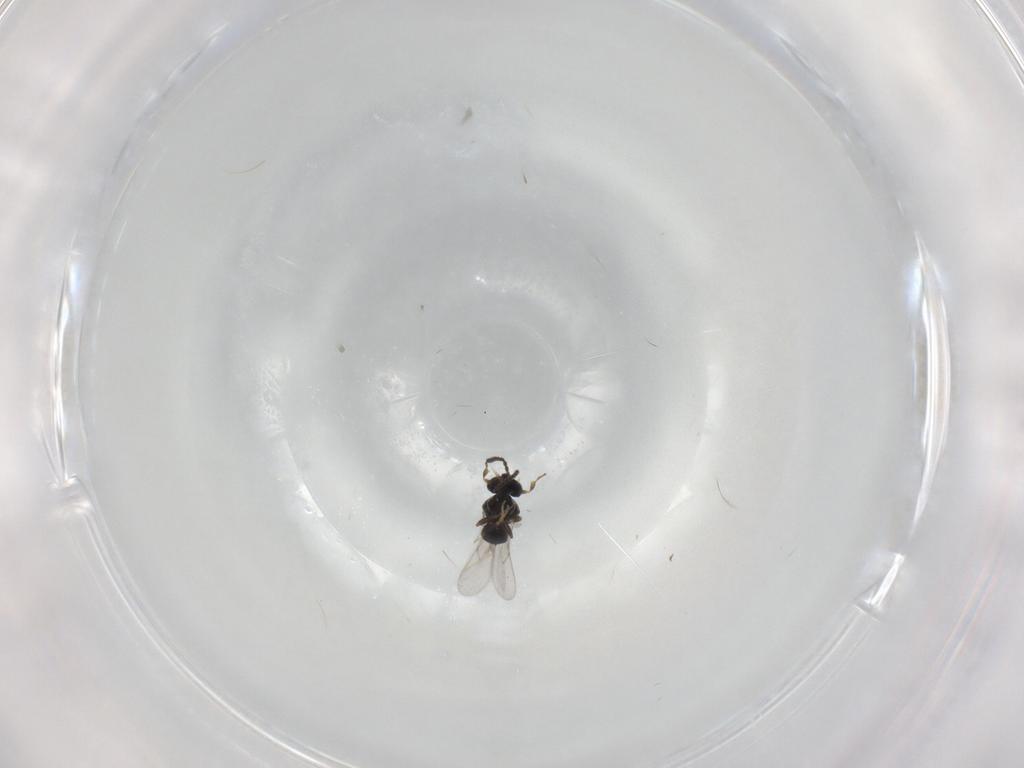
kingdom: Animalia
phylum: Arthropoda
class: Insecta
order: Hymenoptera
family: Scelionidae
